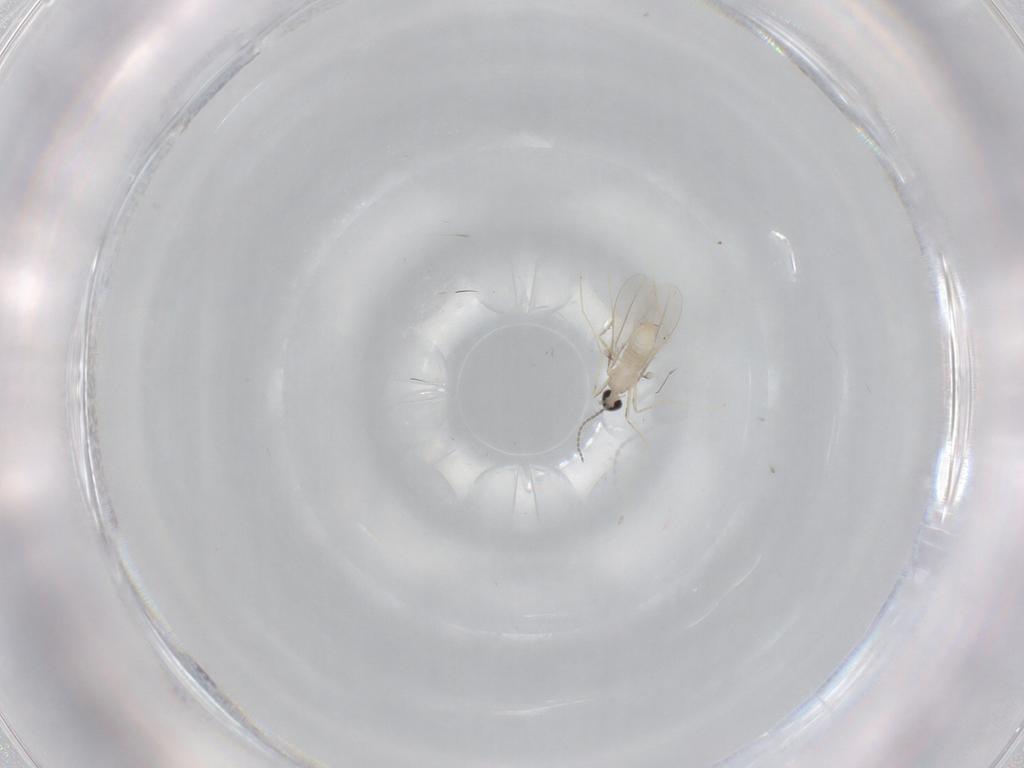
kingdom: Animalia
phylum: Arthropoda
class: Insecta
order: Diptera
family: Cecidomyiidae
